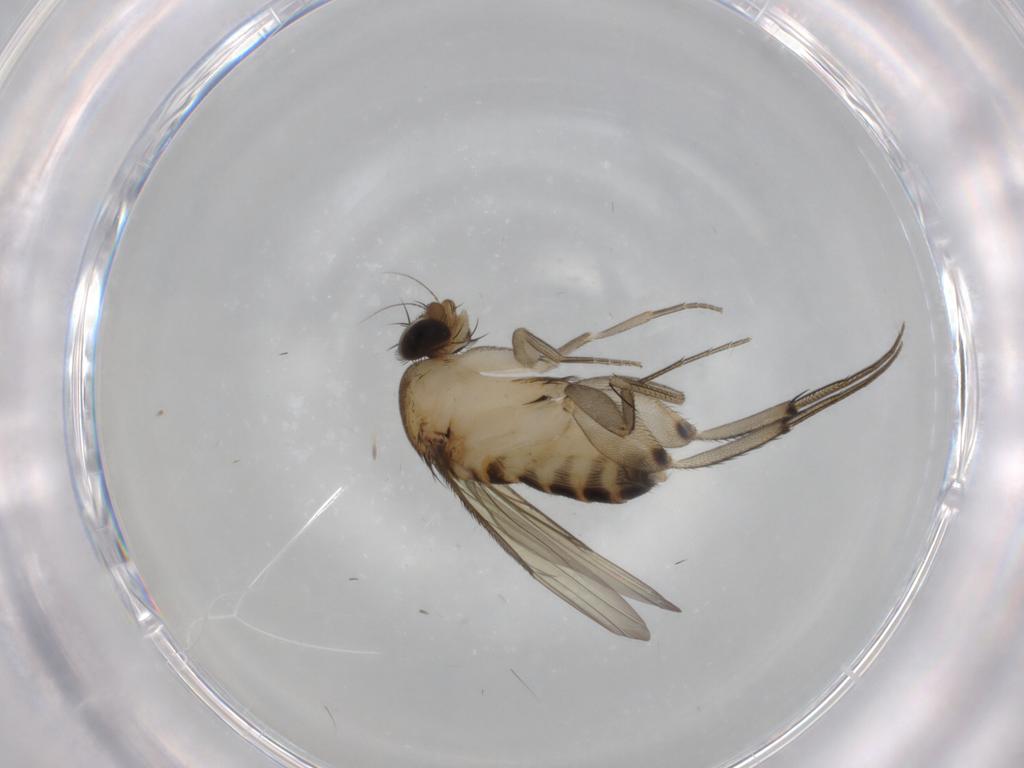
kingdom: Animalia
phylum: Arthropoda
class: Insecta
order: Diptera
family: Phoridae
